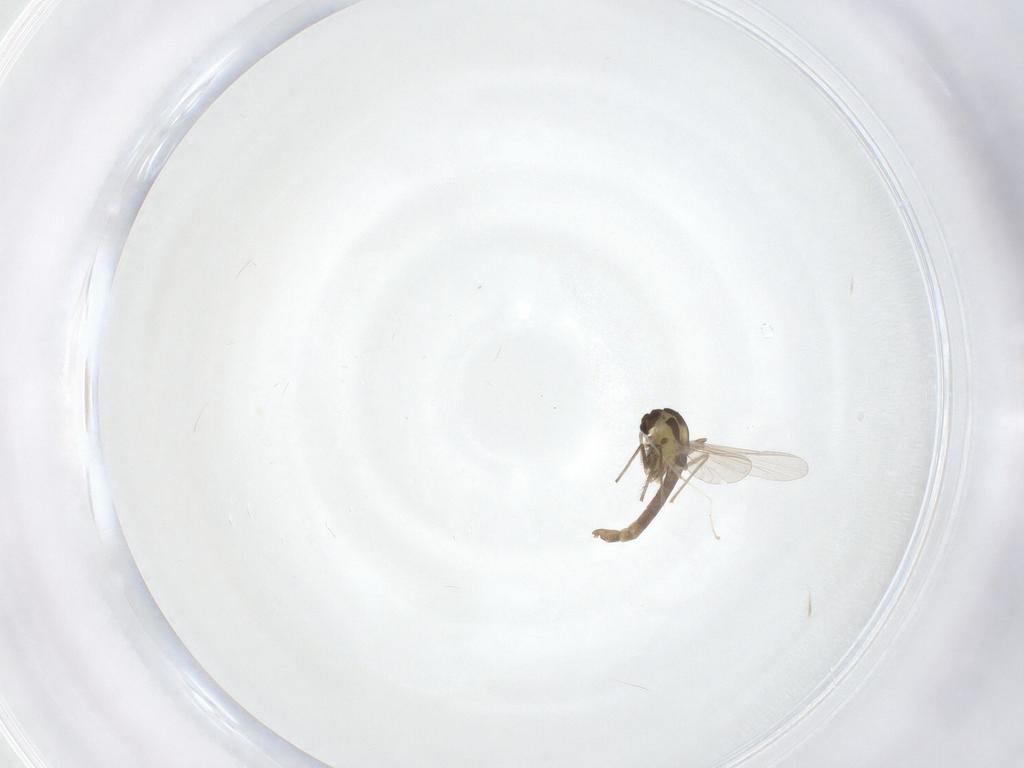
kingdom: Animalia
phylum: Arthropoda
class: Insecta
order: Diptera
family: Chironomidae
